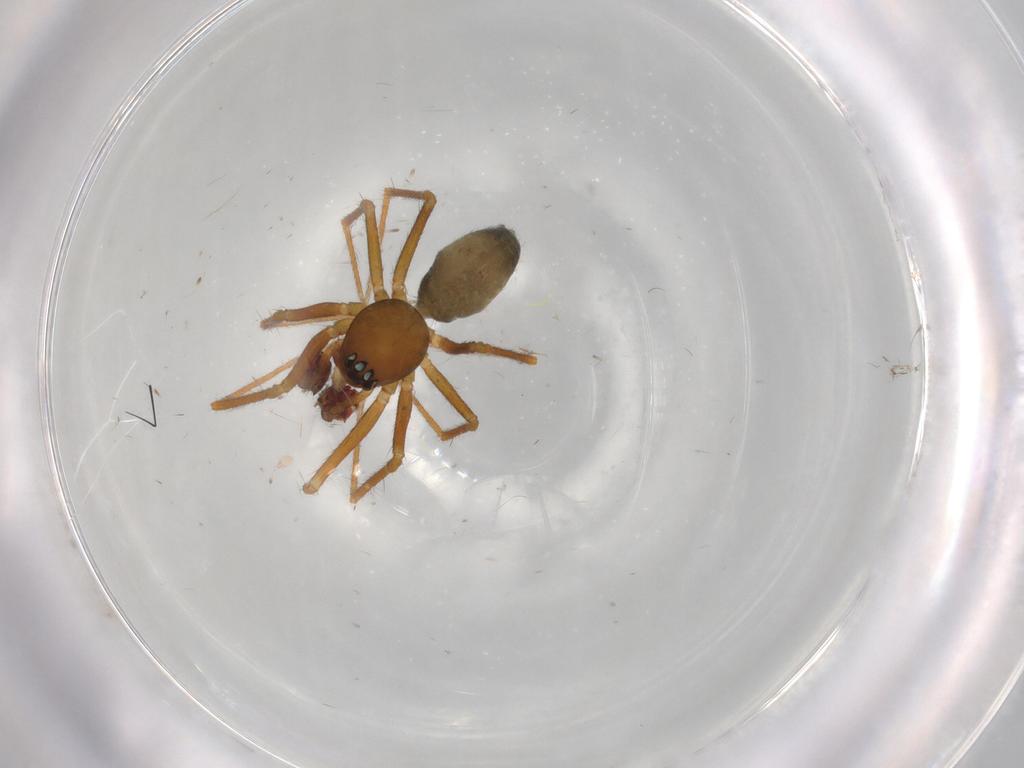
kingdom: Animalia
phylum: Arthropoda
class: Arachnida
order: Araneae
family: Linyphiidae
